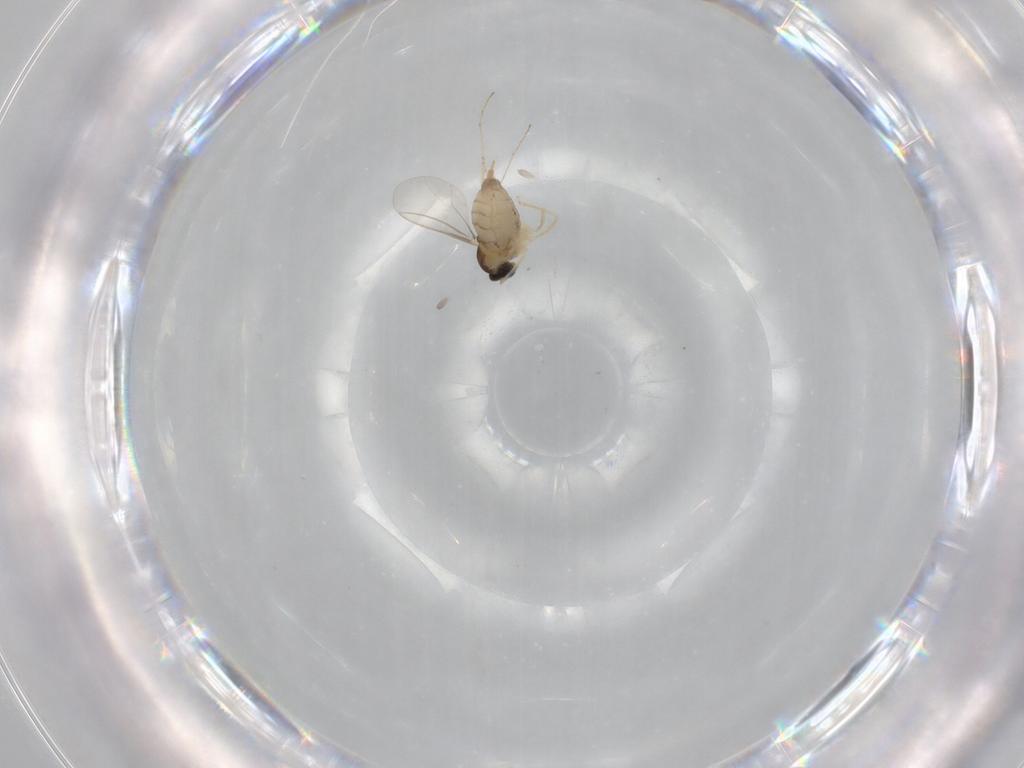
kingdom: Animalia
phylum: Arthropoda
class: Insecta
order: Diptera
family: Cecidomyiidae
